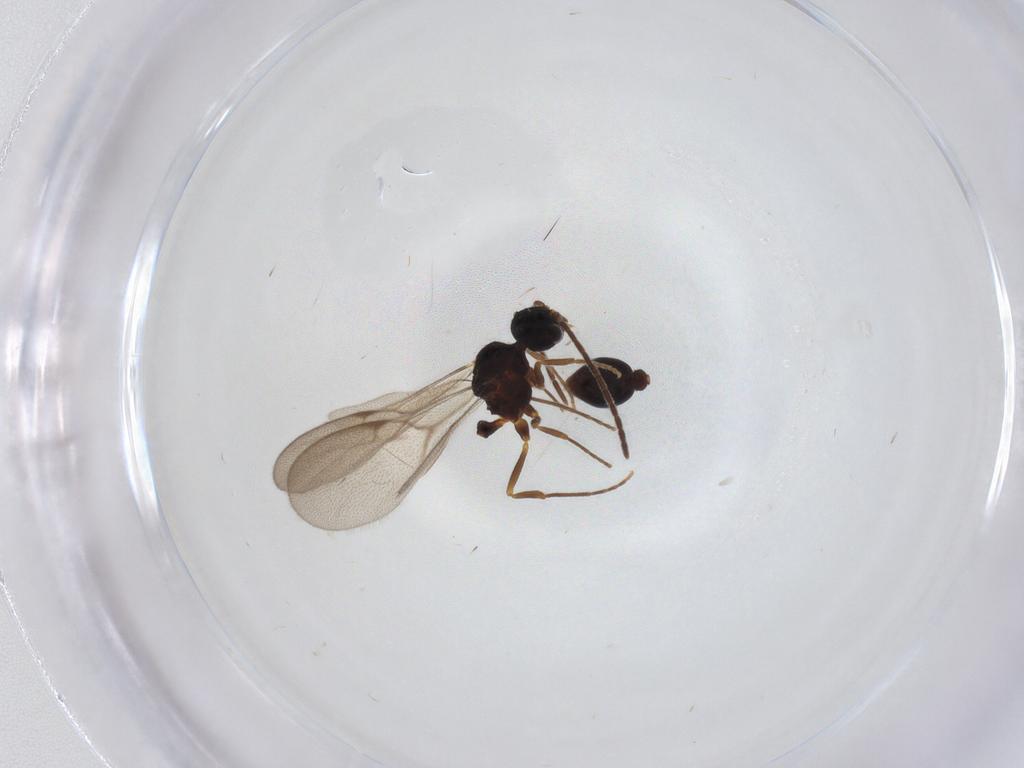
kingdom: Animalia
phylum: Arthropoda
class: Insecta
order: Hymenoptera
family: Formicidae
